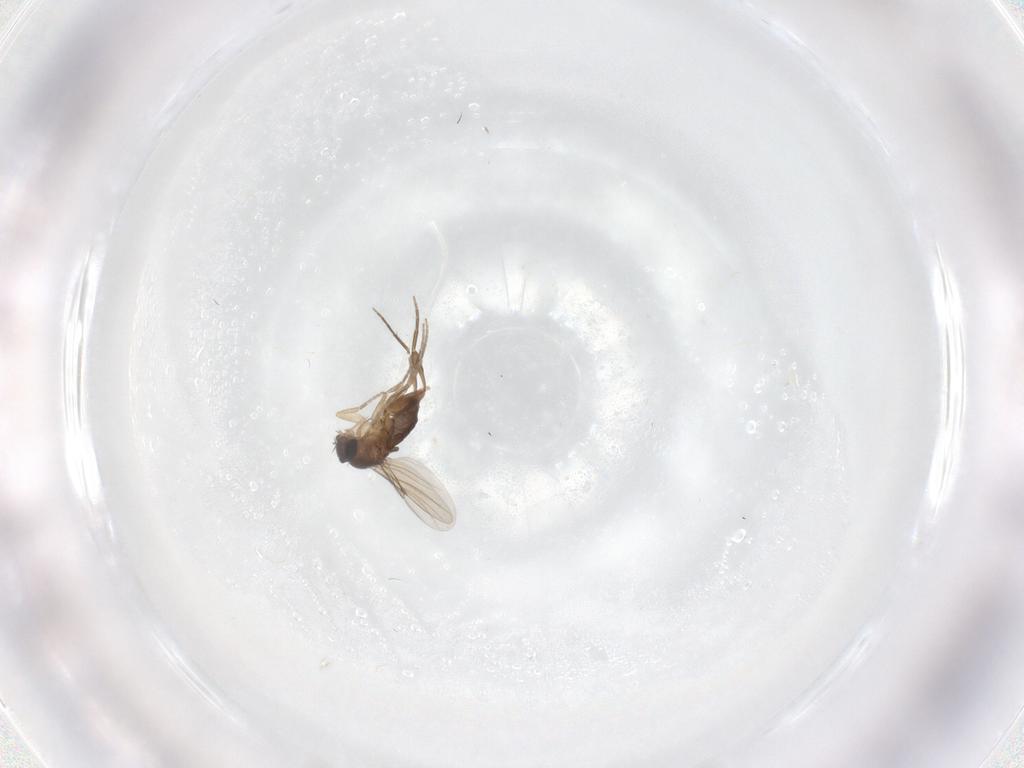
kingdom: Animalia
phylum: Arthropoda
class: Insecta
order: Diptera
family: Phoridae
